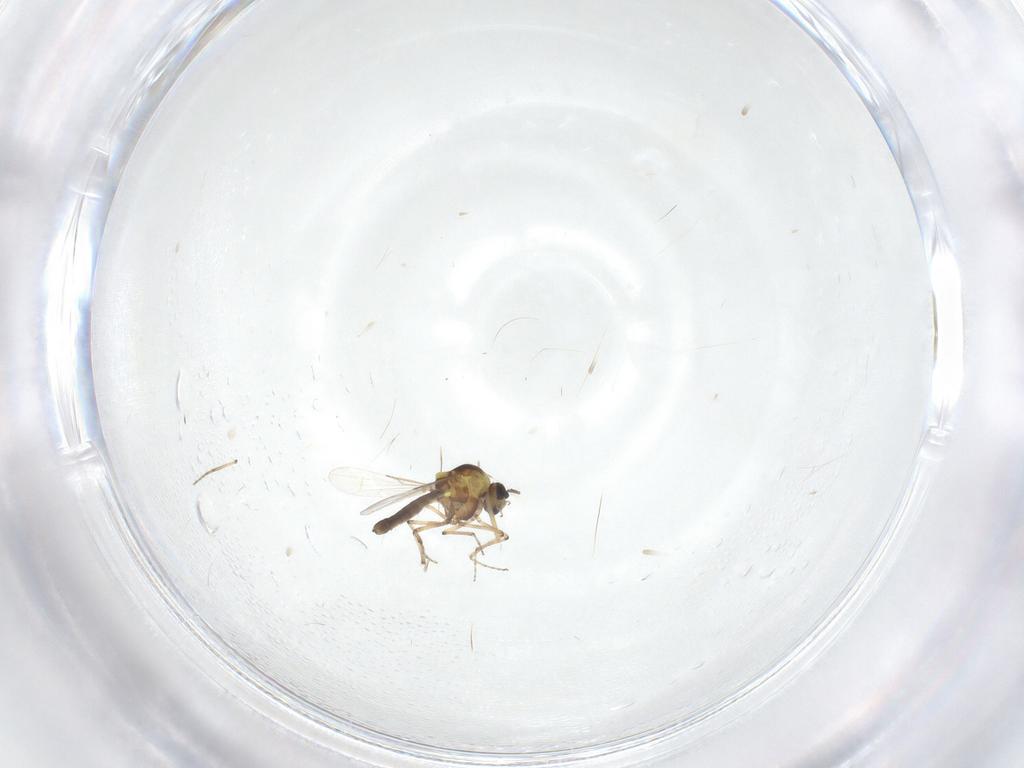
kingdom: Animalia
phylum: Arthropoda
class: Insecta
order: Diptera
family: Ceratopogonidae
